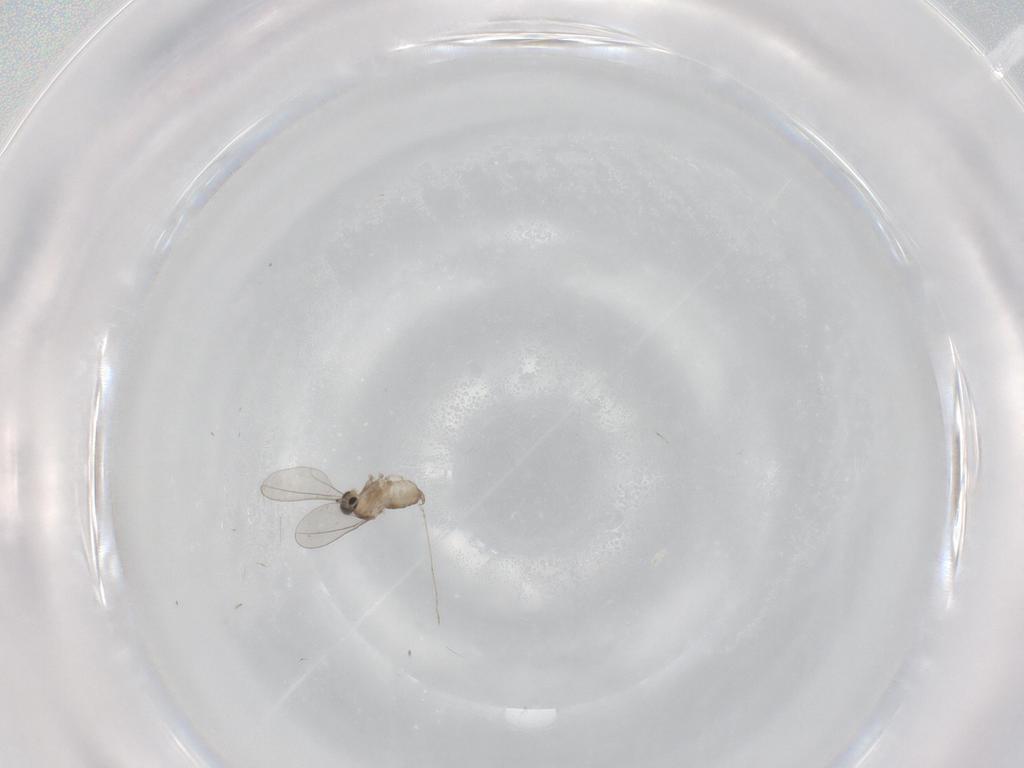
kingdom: Animalia
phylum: Arthropoda
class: Insecta
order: Diptera
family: Cecidomyiidae
